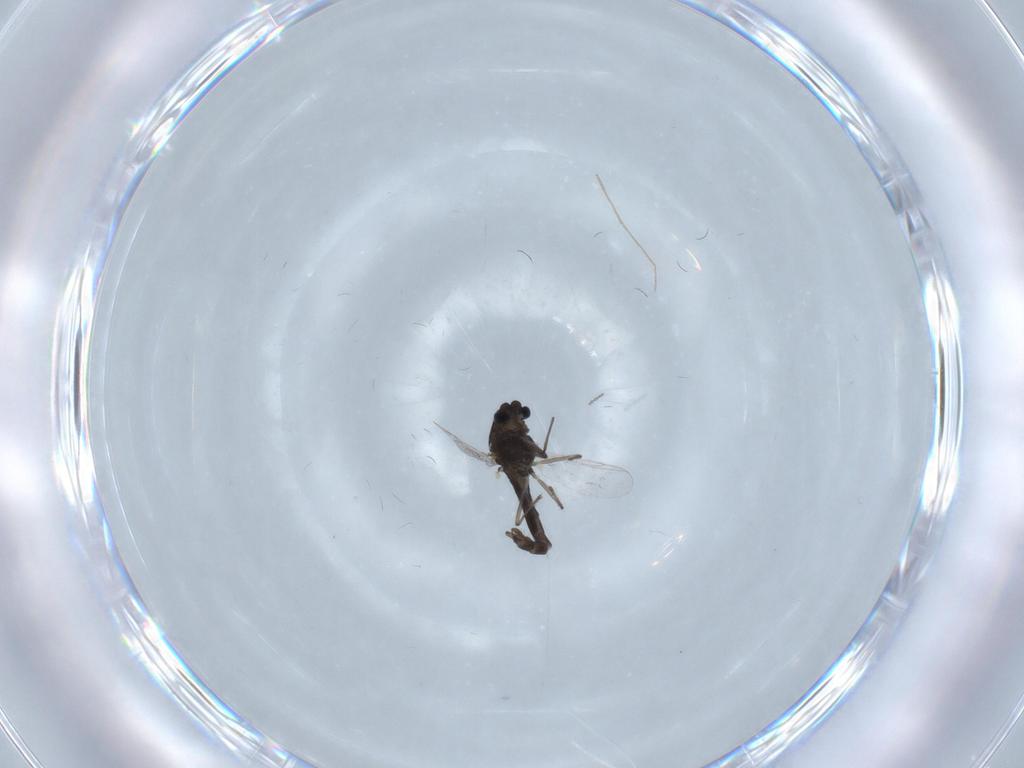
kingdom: Animalia
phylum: Arthropoda
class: Insecta
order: Diptera
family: Chironomidae
